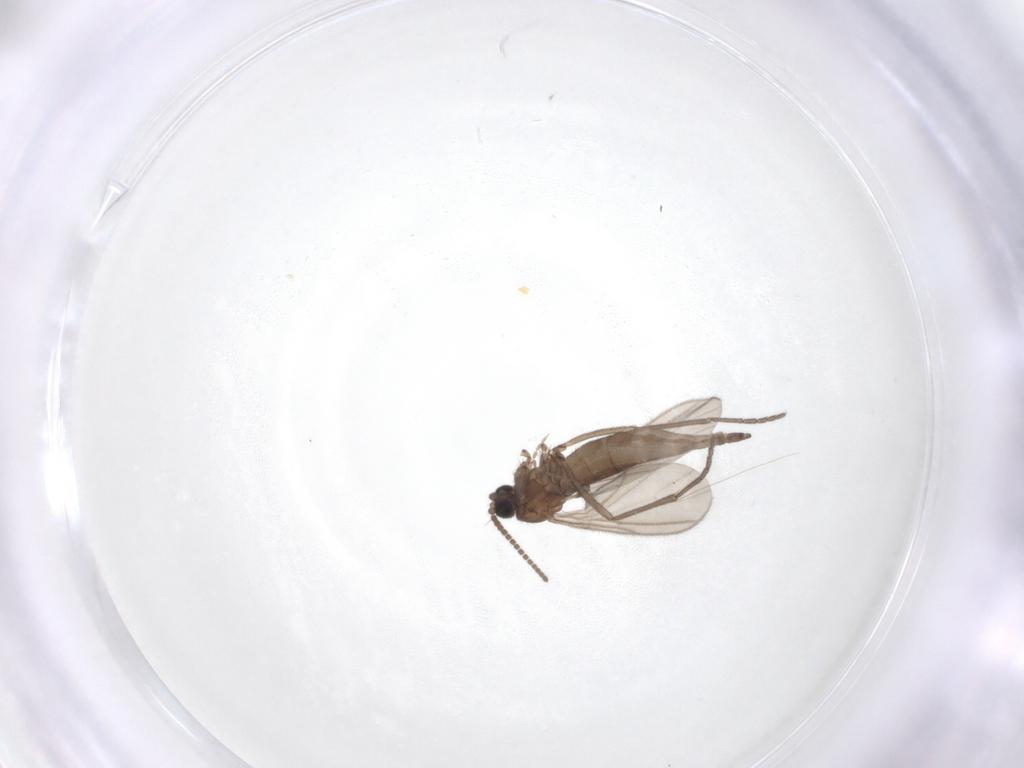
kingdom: Animalia
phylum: Arthropoda
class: Insecta
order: Diptera
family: Sciaridae
